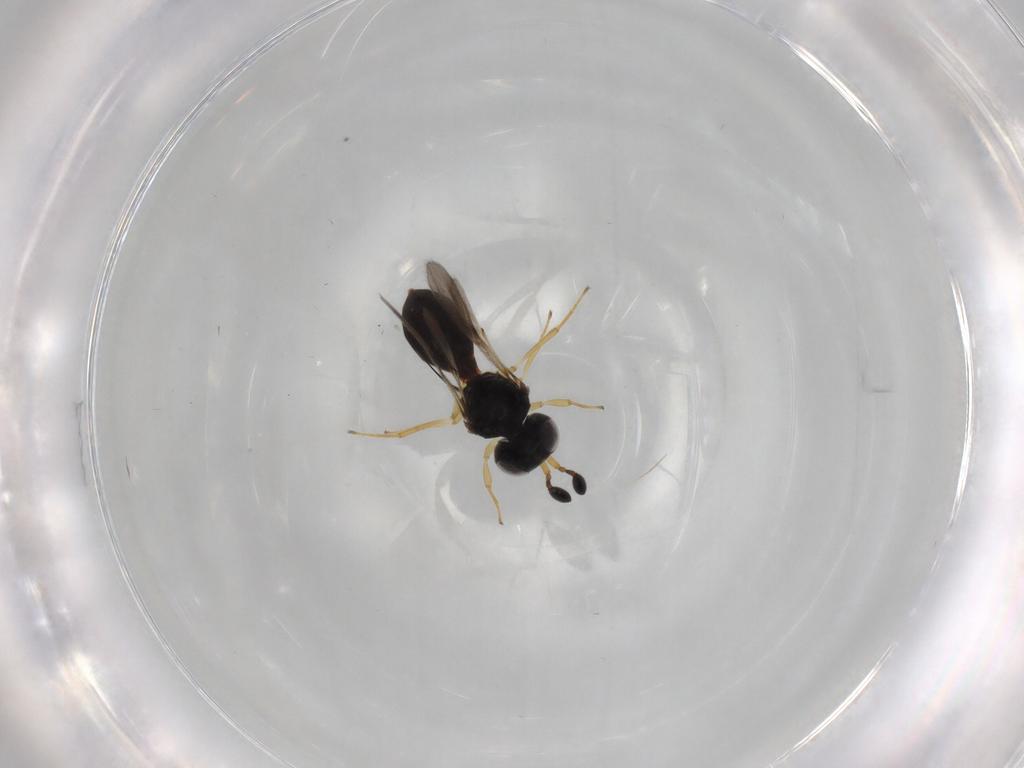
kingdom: Animalia
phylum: Arthropoda
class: Insecta
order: Hymenoptera
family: Scelionidae
